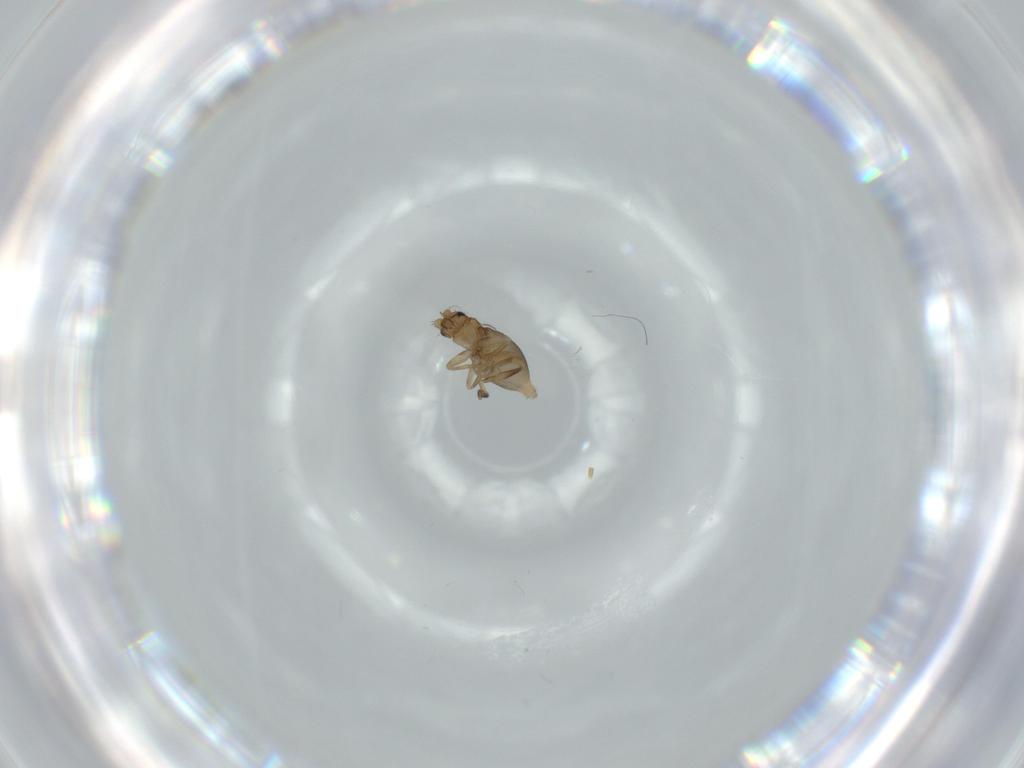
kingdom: Animalia
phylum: Arthropoda
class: Insecta
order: Diptera
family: Phoridae
